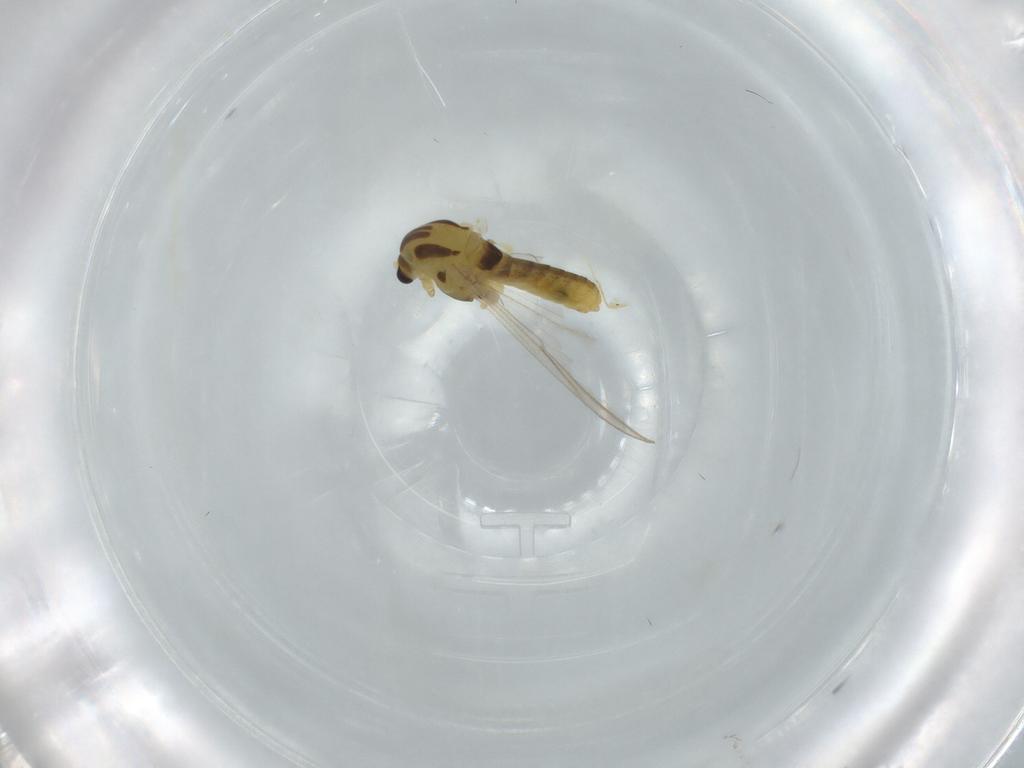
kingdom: Animalia
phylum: Arthropoda
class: Insecta
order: Diptera
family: Chironomidae
